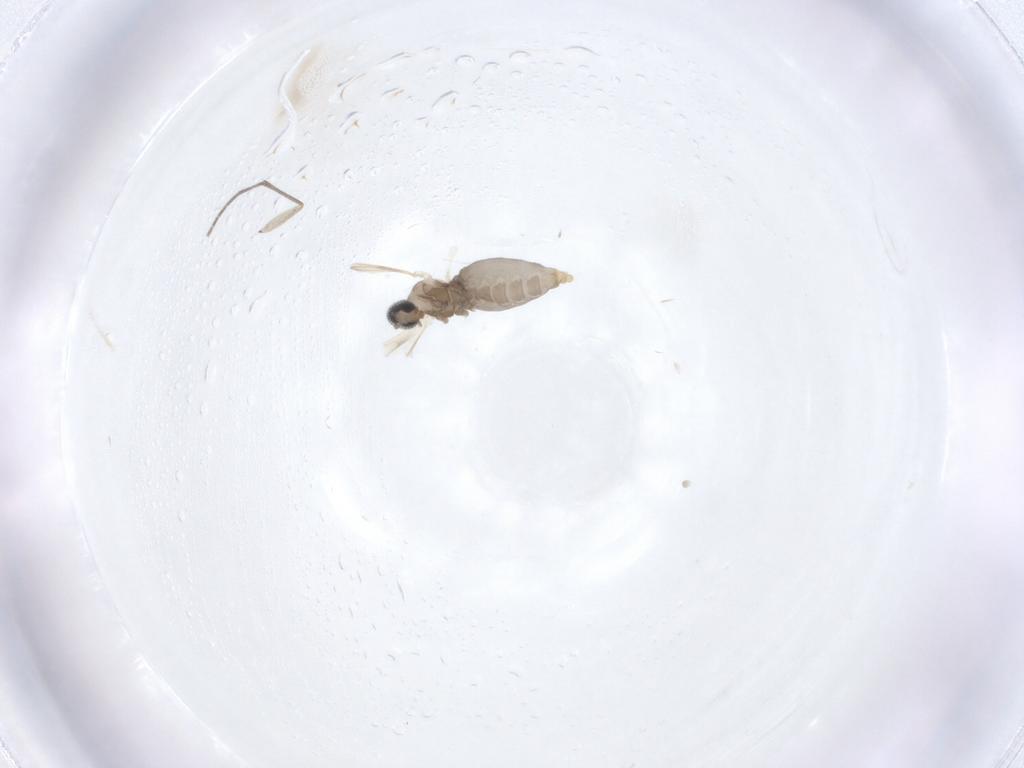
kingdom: Animalia
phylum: Arthropoda
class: Insecta
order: Diptera
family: Cecidomyiidae
